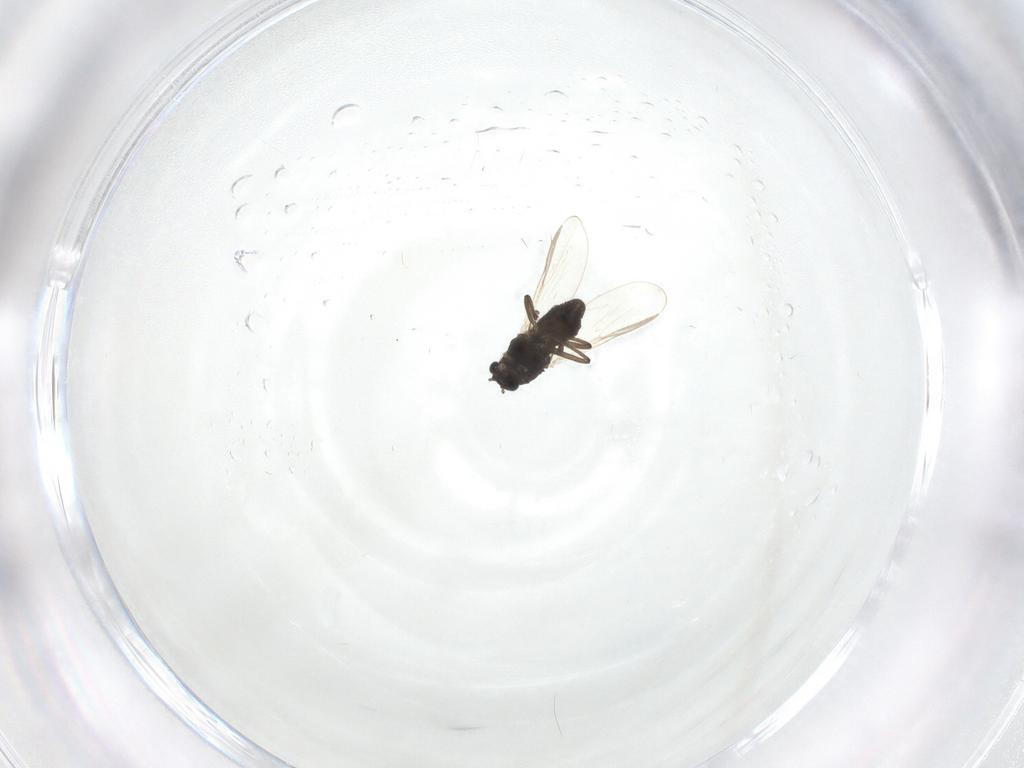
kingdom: Animalia
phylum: Arthropoda
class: Insecta
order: Diptera
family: Chironomidae
